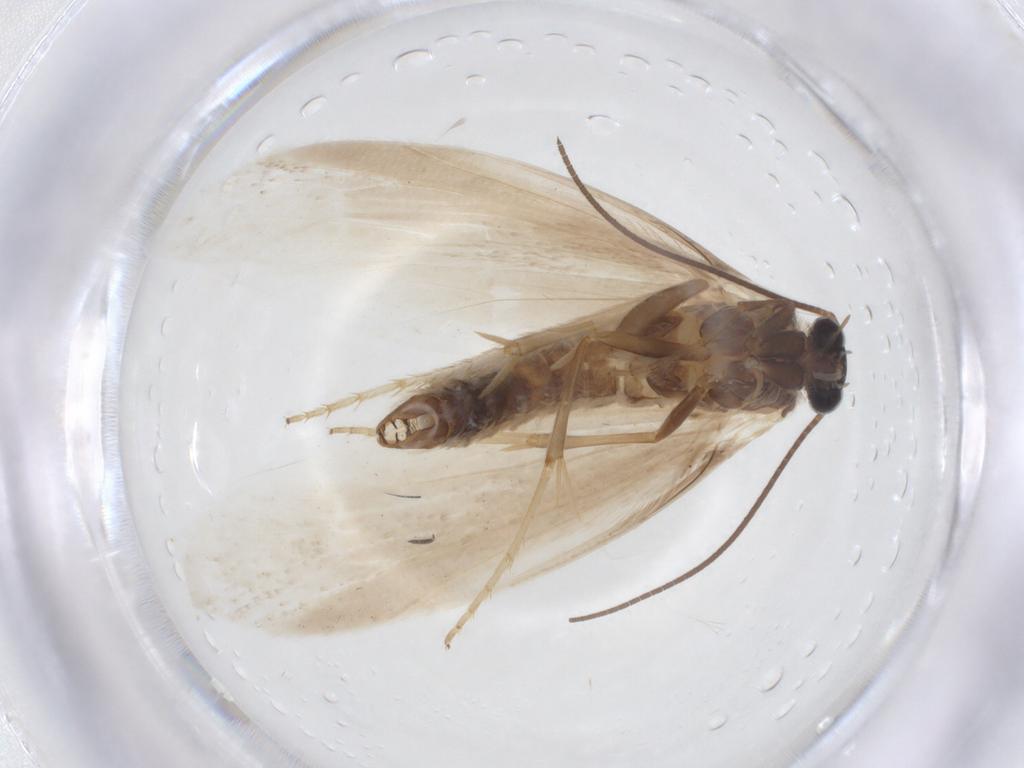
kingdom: Animalia
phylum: Arthropoda
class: Insecta
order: Lepidoptera
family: Tridentaformidae
